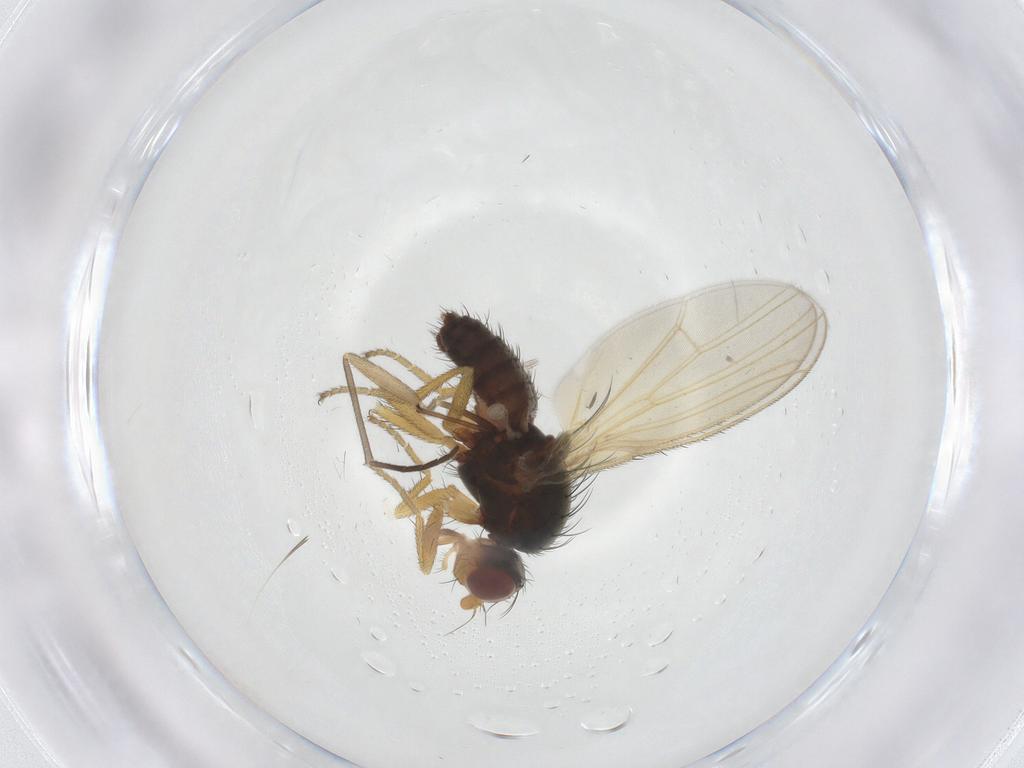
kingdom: Animalia
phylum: Arthropoda
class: Insecta
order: Diptera
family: Heleomyzidae
